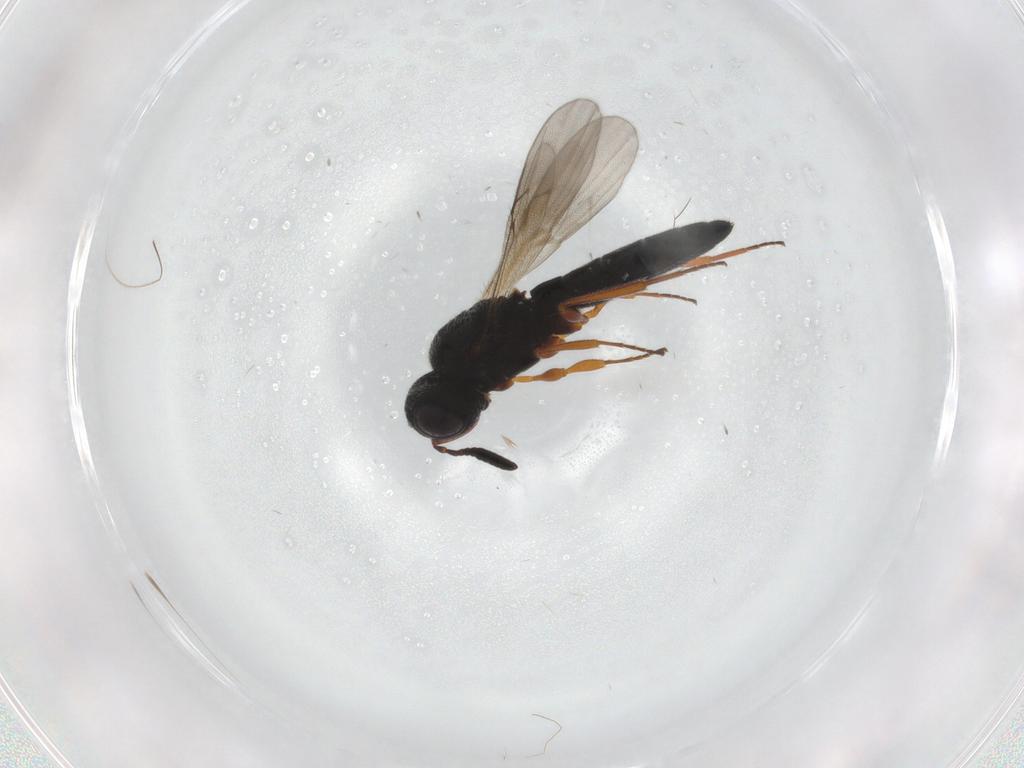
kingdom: Animalia
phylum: Arthropoda
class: Insecta
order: Hymenoptera
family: Scelionidae
